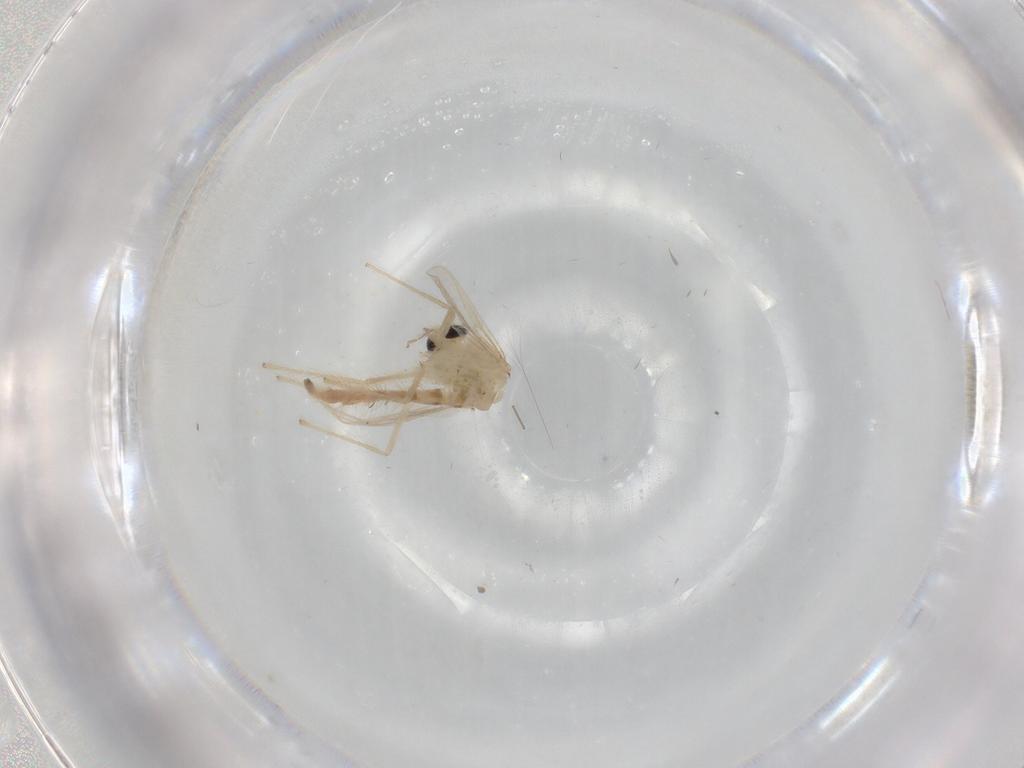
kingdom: Animalia
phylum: Arthropoda
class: Insecta
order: Diptera
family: Chironomidae
